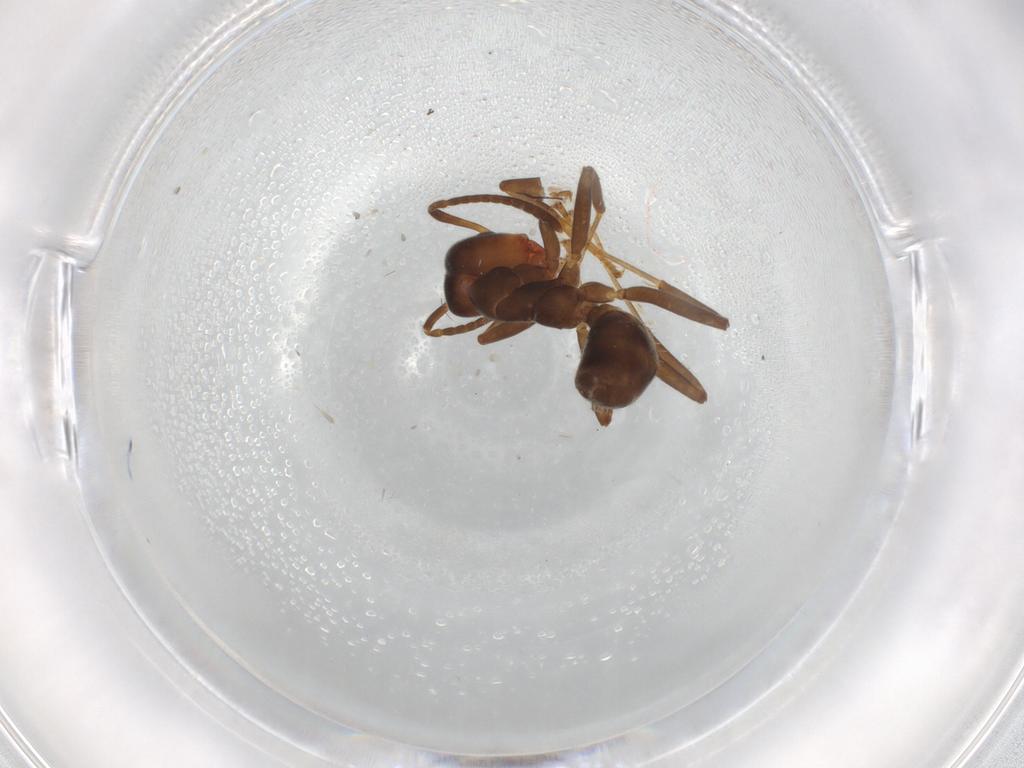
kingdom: Animalia
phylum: Arthropoda
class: Insecta
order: Hymenoptera
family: Formicidae
